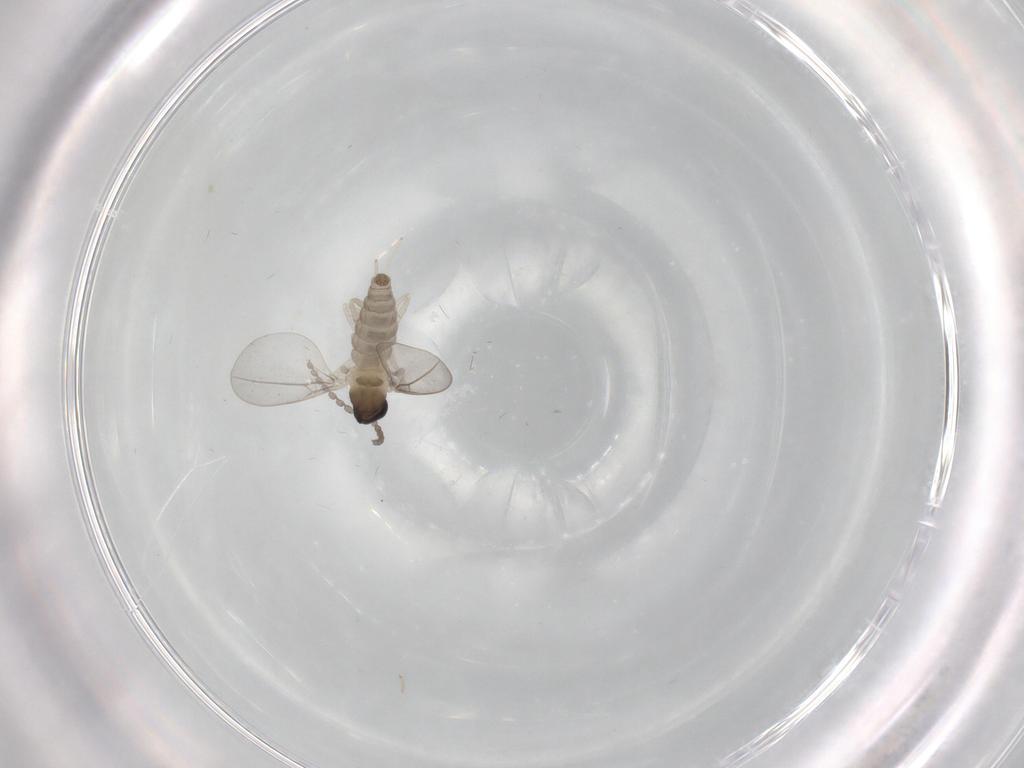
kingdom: Animalia
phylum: Arthropoda
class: Insecta
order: Diptera
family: Cecidomyiidae
